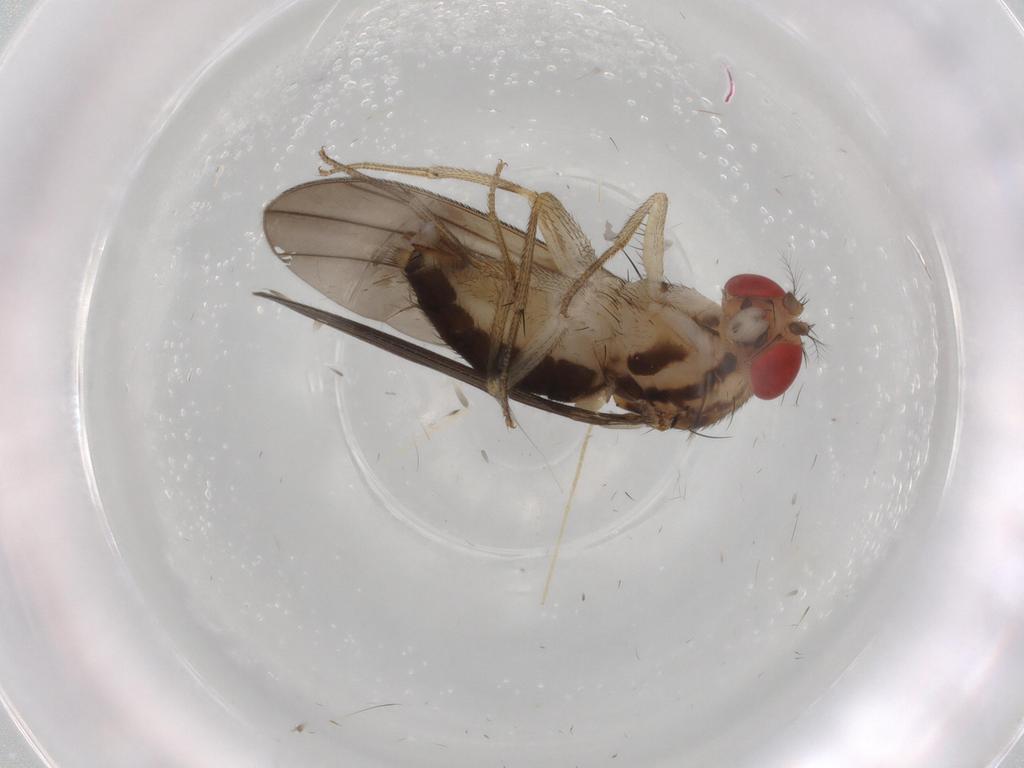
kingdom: Animalia
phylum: Arthropoda
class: Insecta
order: Diptera
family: Drosophilidae
